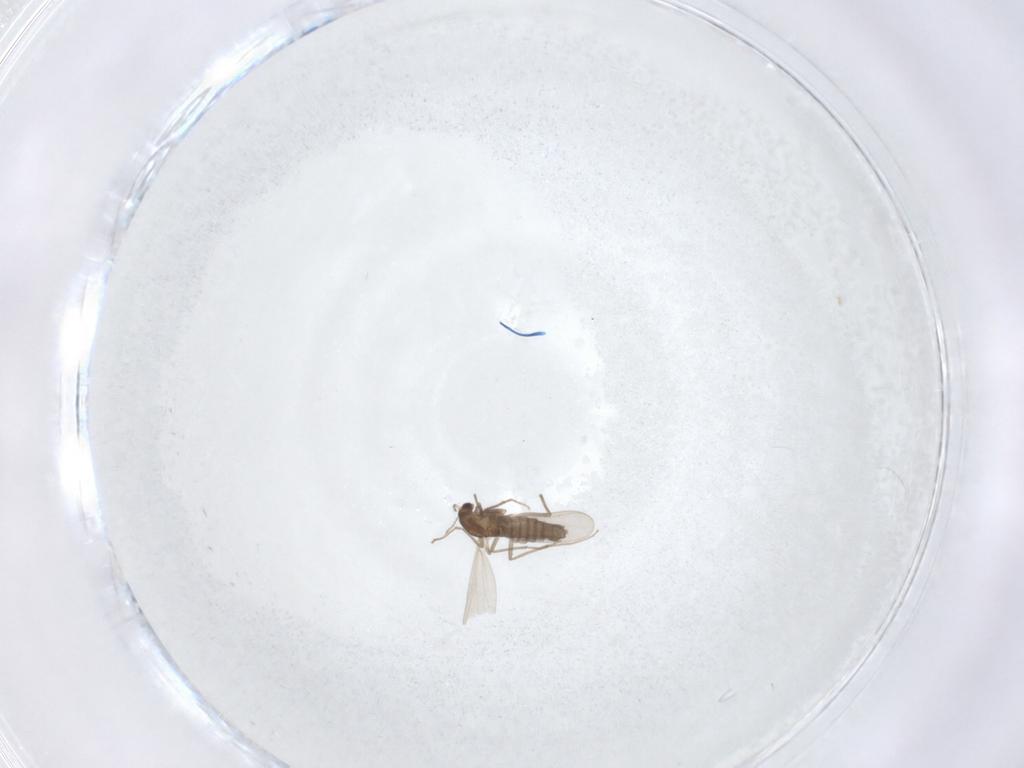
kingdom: Animalia
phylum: Arthropoda
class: Insecta
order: Diptera
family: Chironomidae
